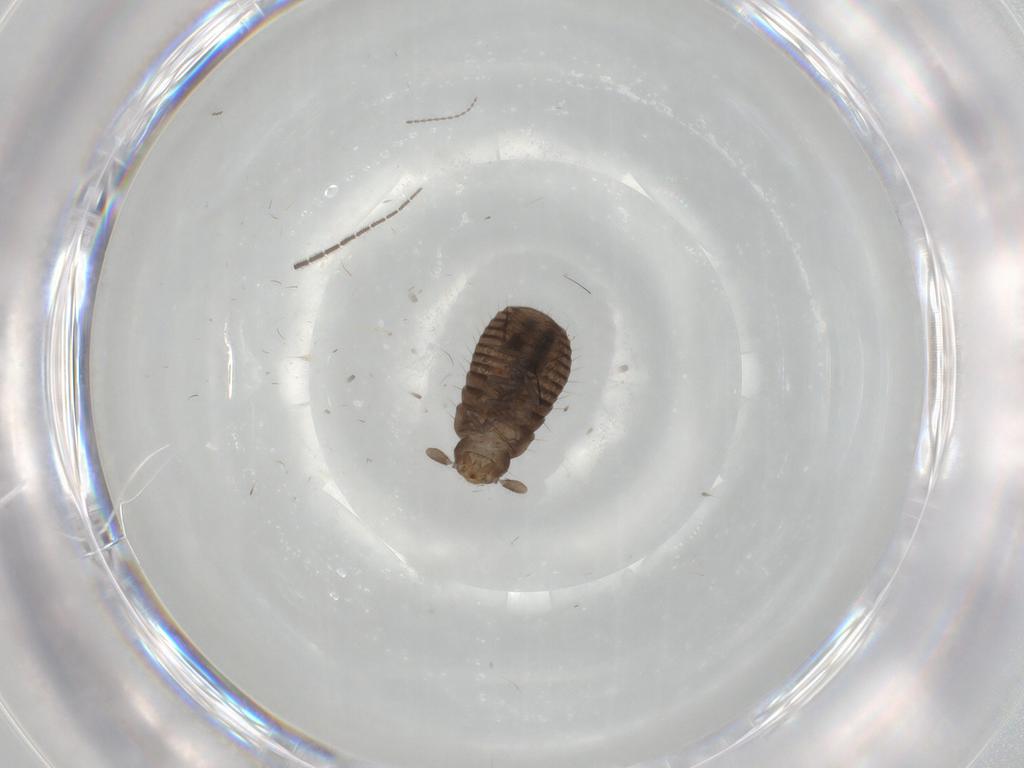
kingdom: Animalia
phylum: Arthropoda
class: Insecta
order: Coleoptera
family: Tenebrionidae
